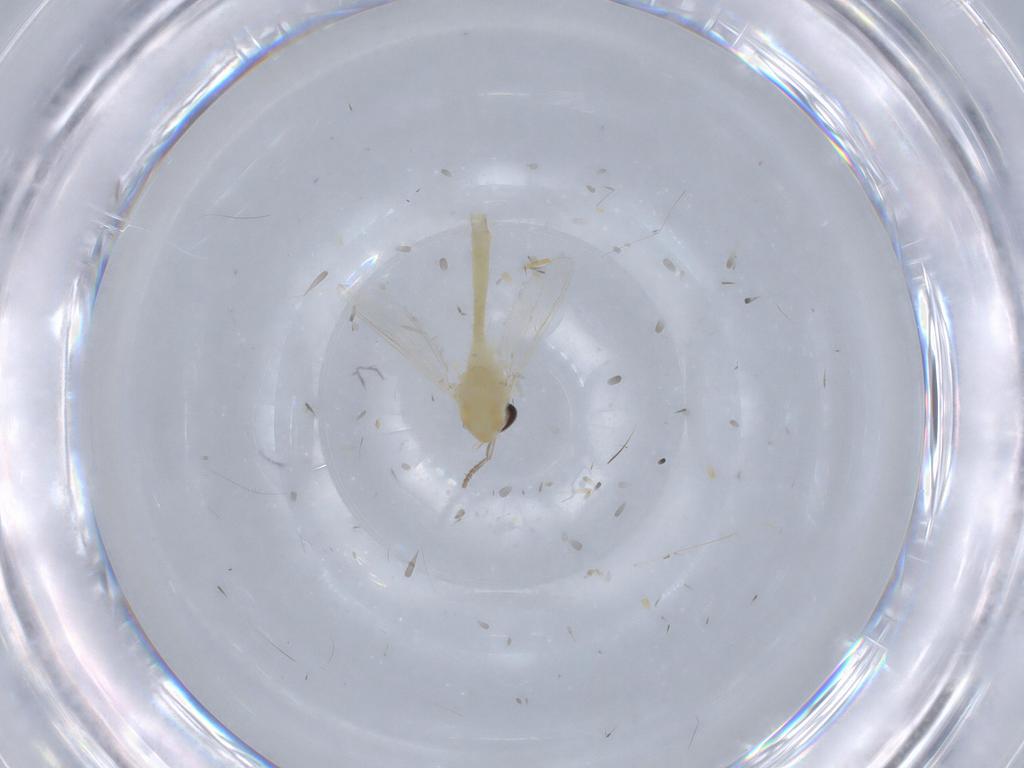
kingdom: Animalia
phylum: Arthropoda
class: Insecta
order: Diptera
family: Chironomidae
